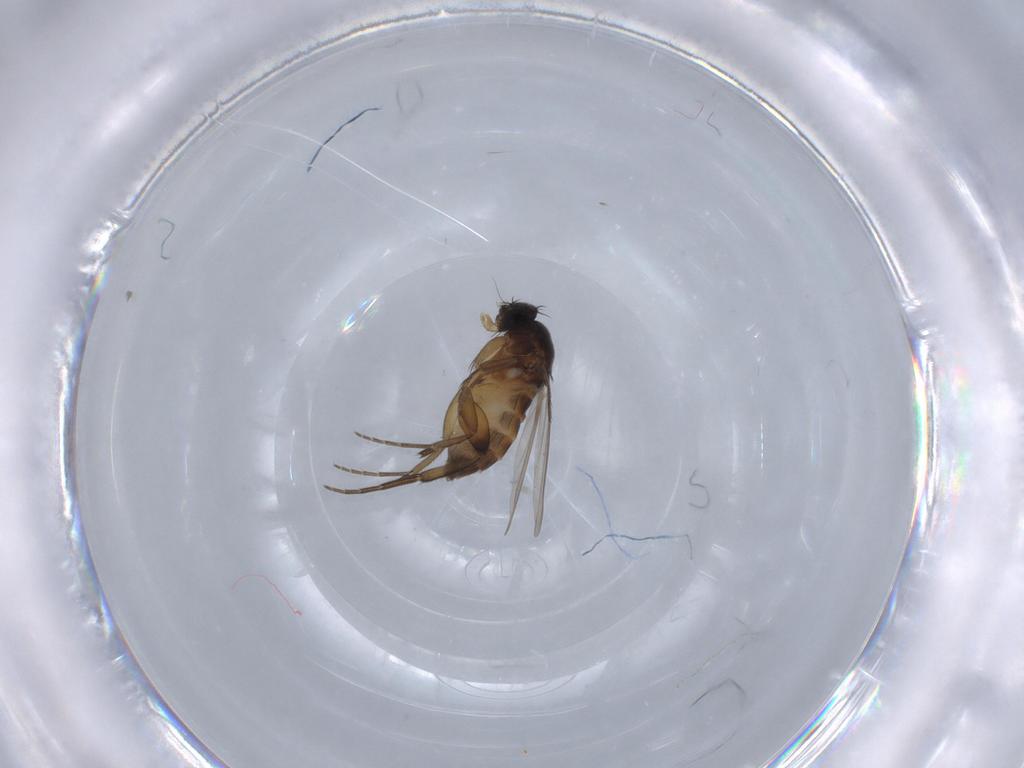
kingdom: Animalia
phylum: Arthropoda
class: Insecta
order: Diptera
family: Phoridae
